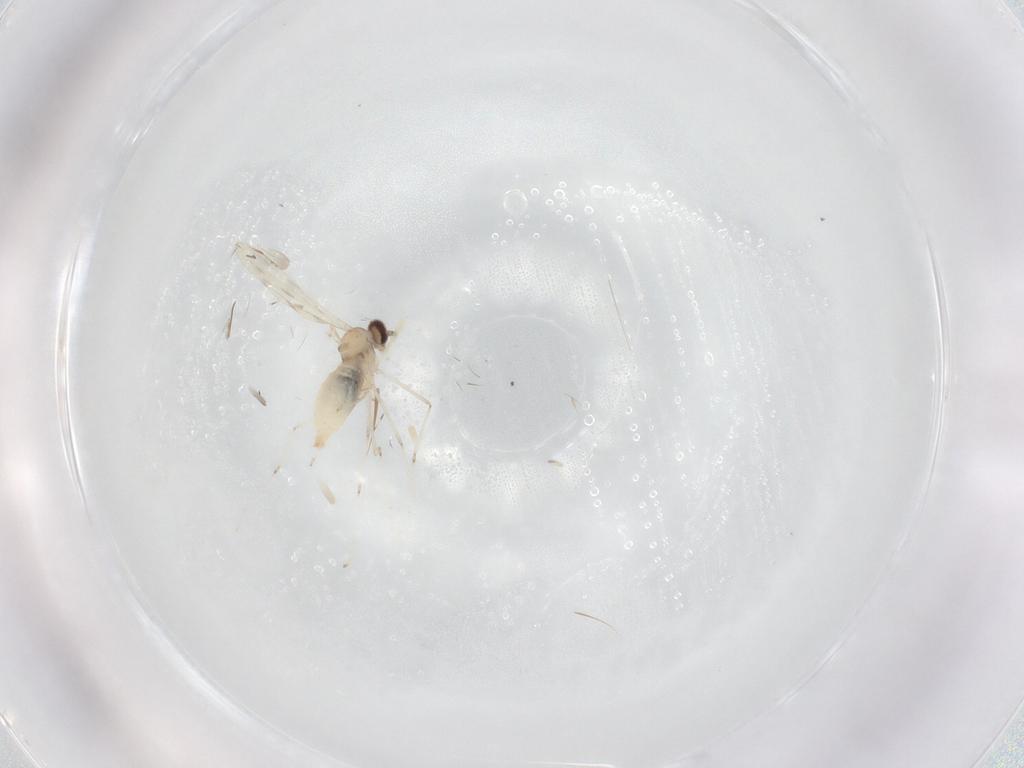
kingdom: Animalia
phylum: Arthropoda
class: Insecta
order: Diptera
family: Cecidomyiidae
